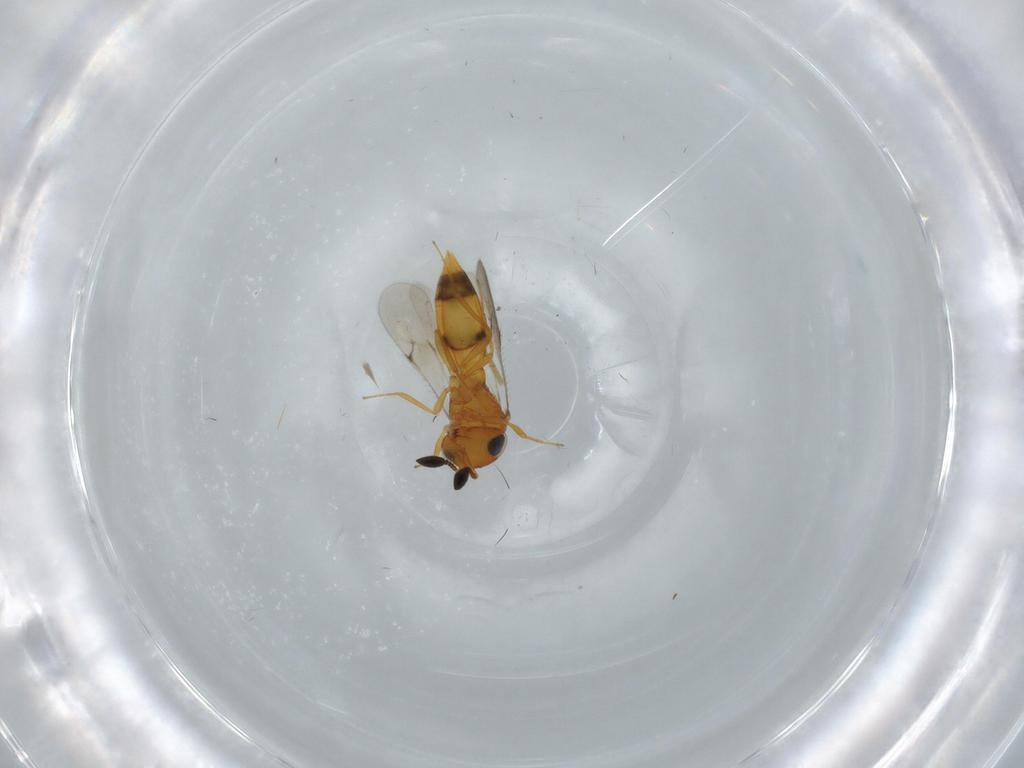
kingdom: Animalia
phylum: Arthropoda
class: Insecta
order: Hymenoptera
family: Scelionidae
